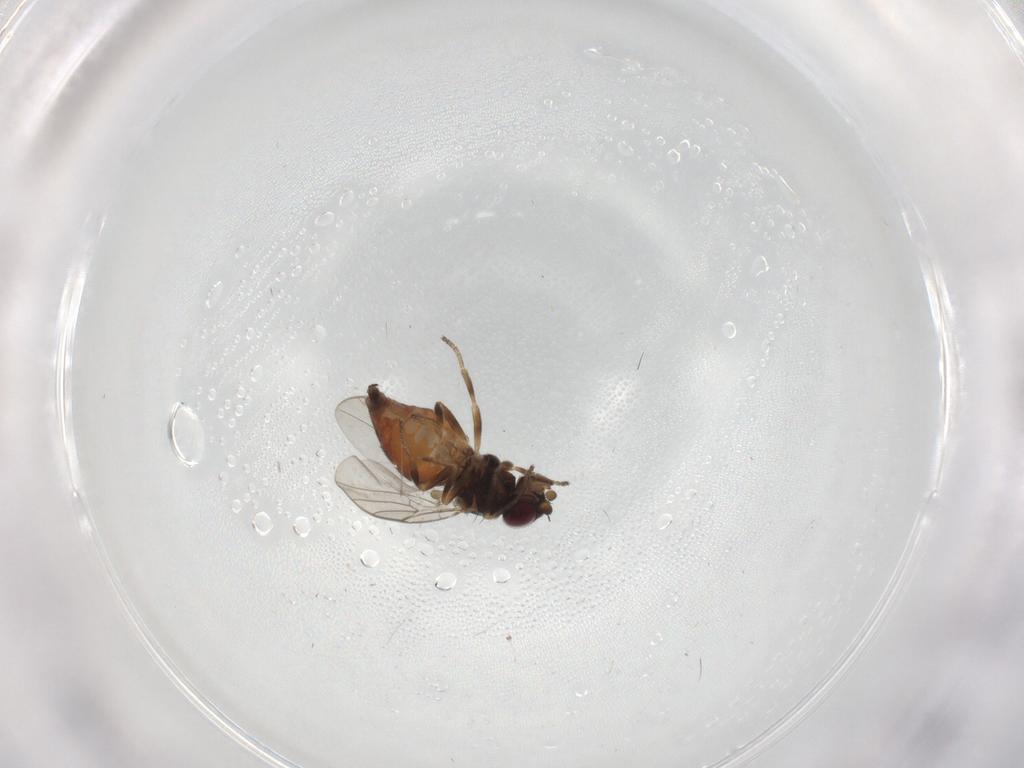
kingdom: Animalia
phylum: Arthropoda
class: Insecta
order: Diptera
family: Chloropidae
